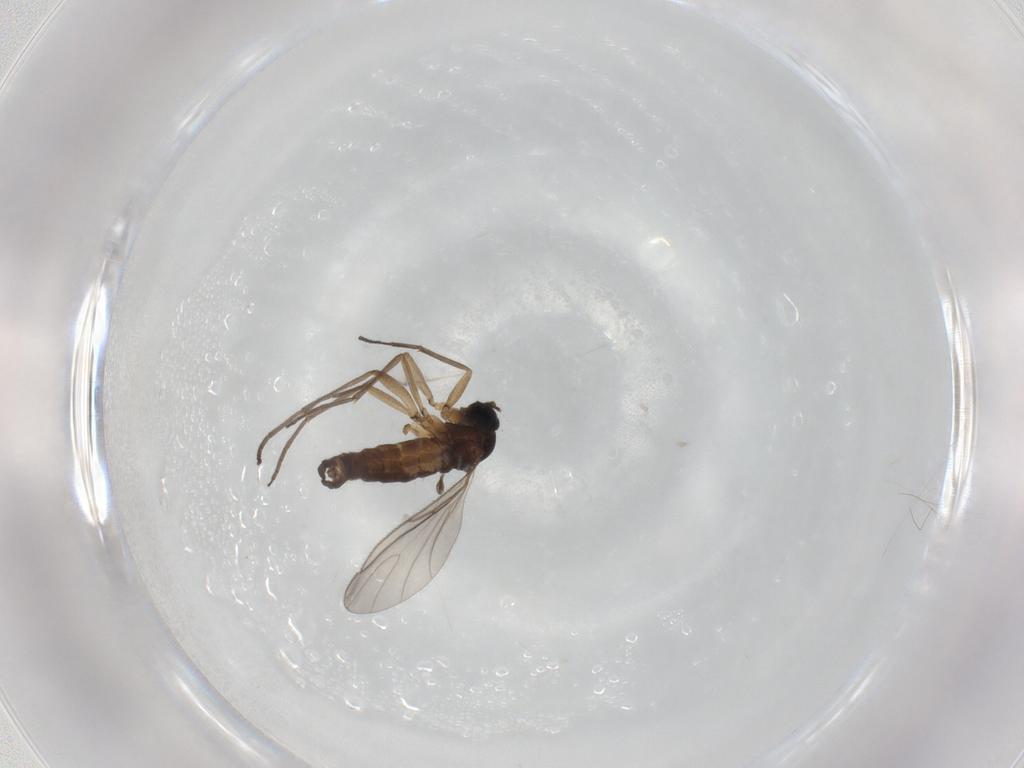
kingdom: Animalia
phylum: Arthropoda
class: Insecta
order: Diptera
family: Sciaridae
